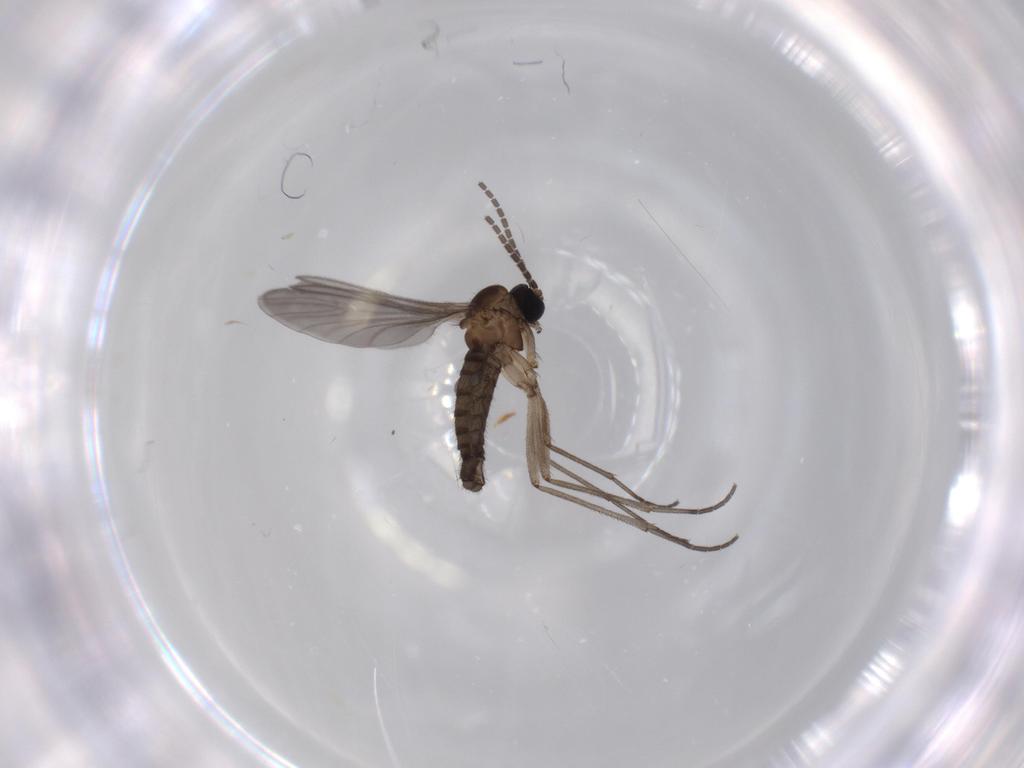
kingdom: Animalia
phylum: Arthropoda
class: Insecta
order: Diptera
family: Sciaridae
